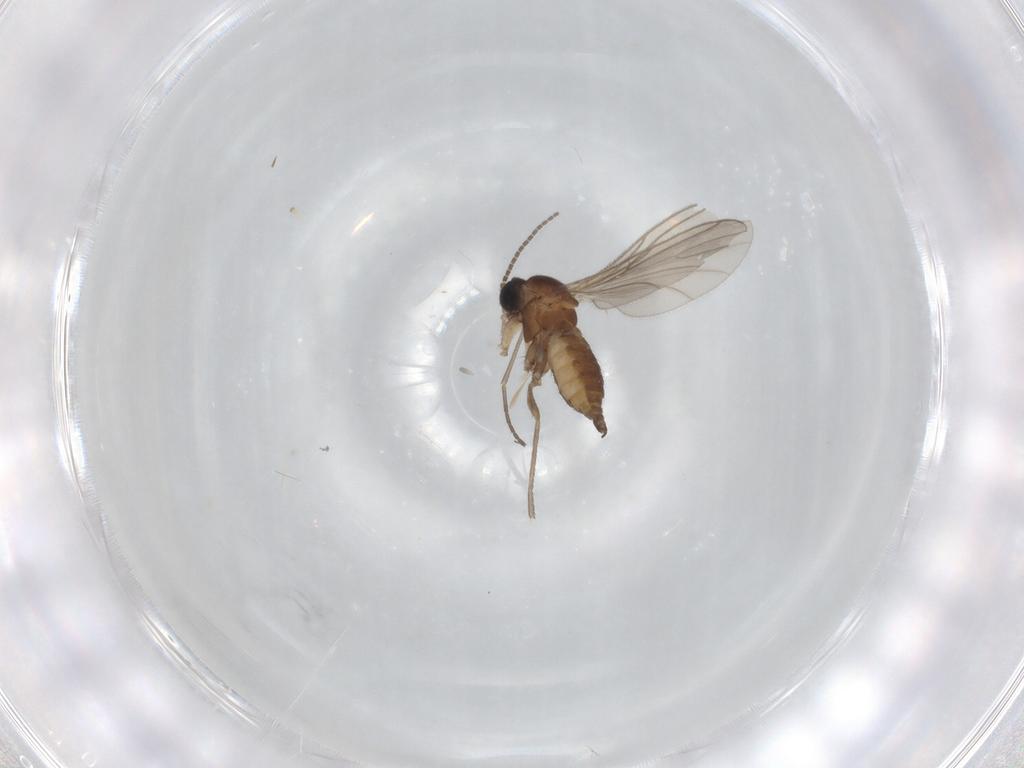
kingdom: Animalia
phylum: Arthropoda
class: Insecta
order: Diptera
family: Sciaridae
